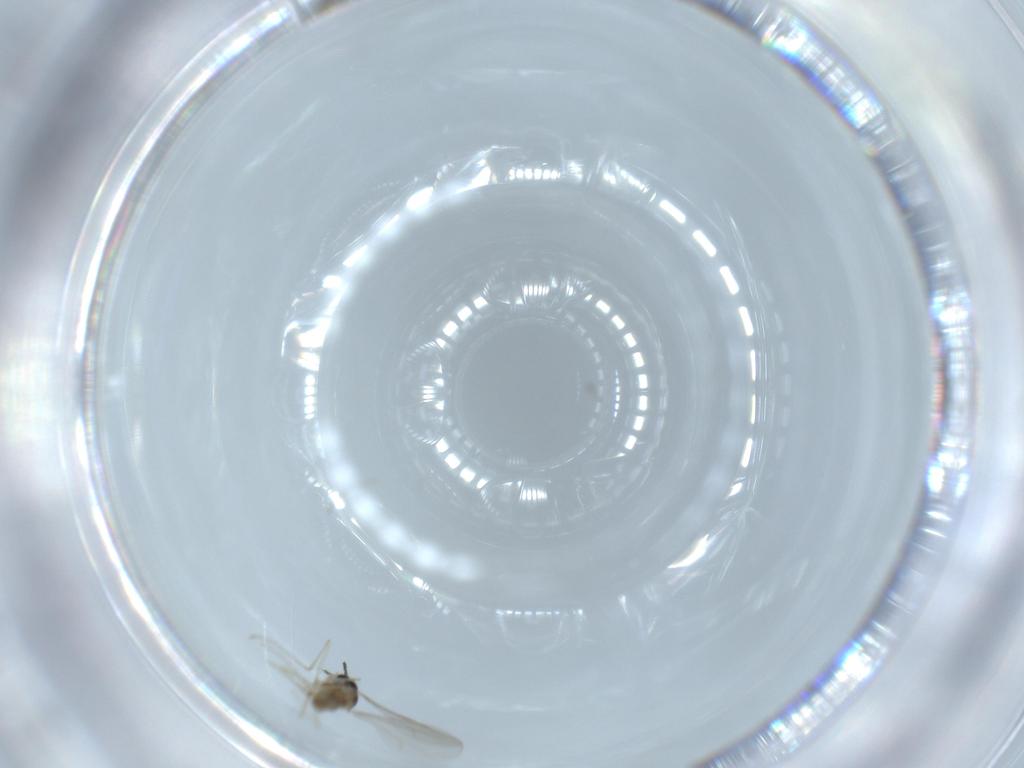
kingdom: Animalia
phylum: Arthropoda
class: Insecta
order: Diptera
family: Cecidomyiidae
